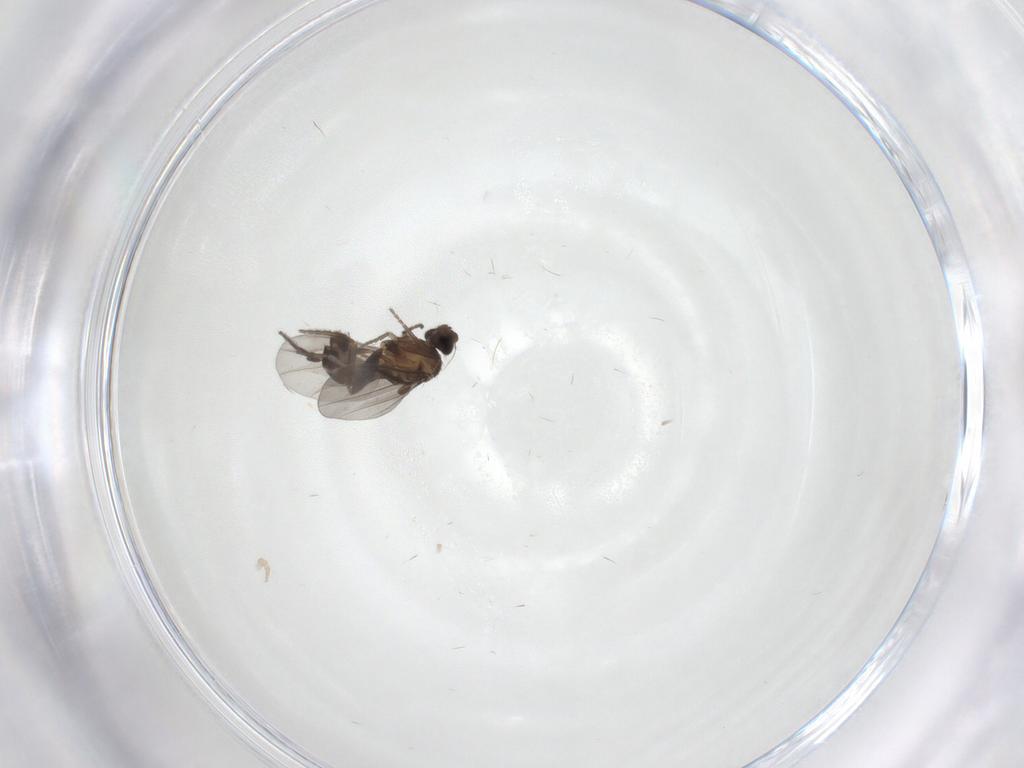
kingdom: Animalia
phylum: Arthropoda
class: Insecta
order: Diptera
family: Phoridae
